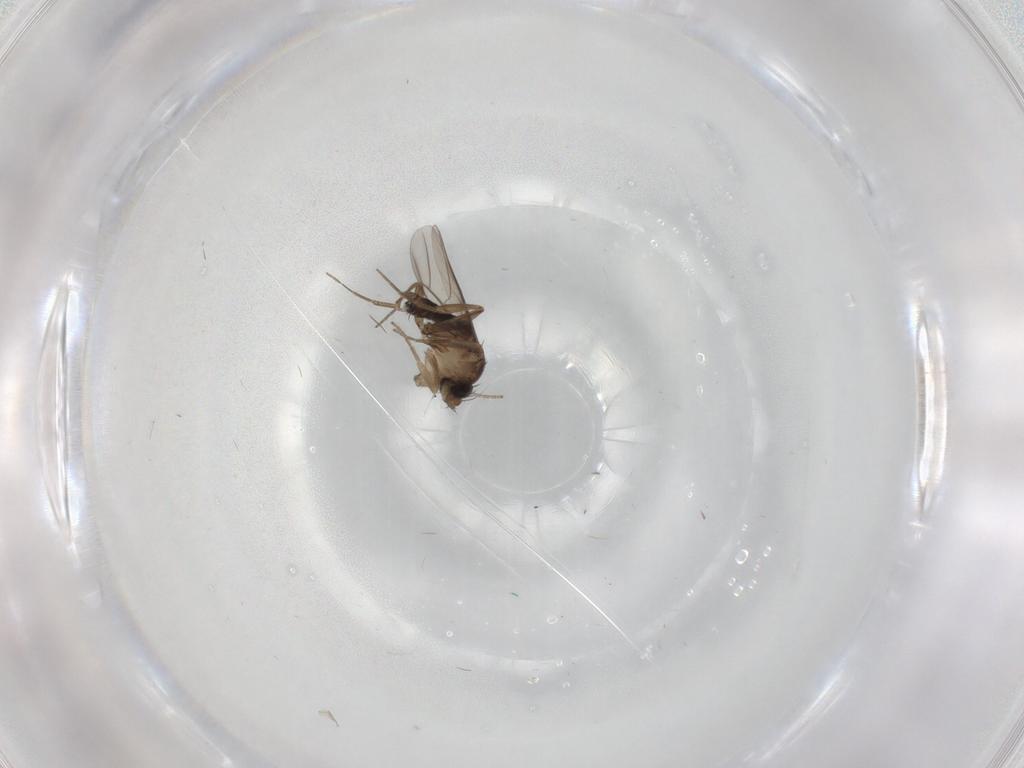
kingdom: Animalia
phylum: Arthropoda
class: Insecta
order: Diptera
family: Phoridae
